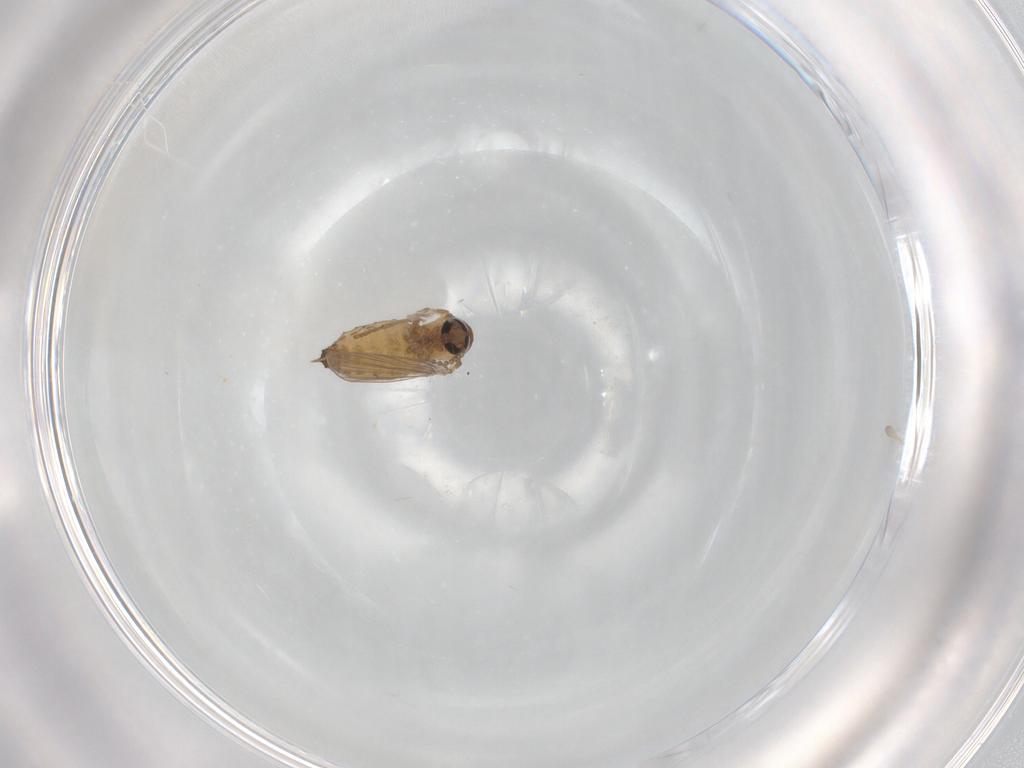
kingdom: Animalia
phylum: Arthropoda
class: Insecta
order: Diptera
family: Psychodidae
